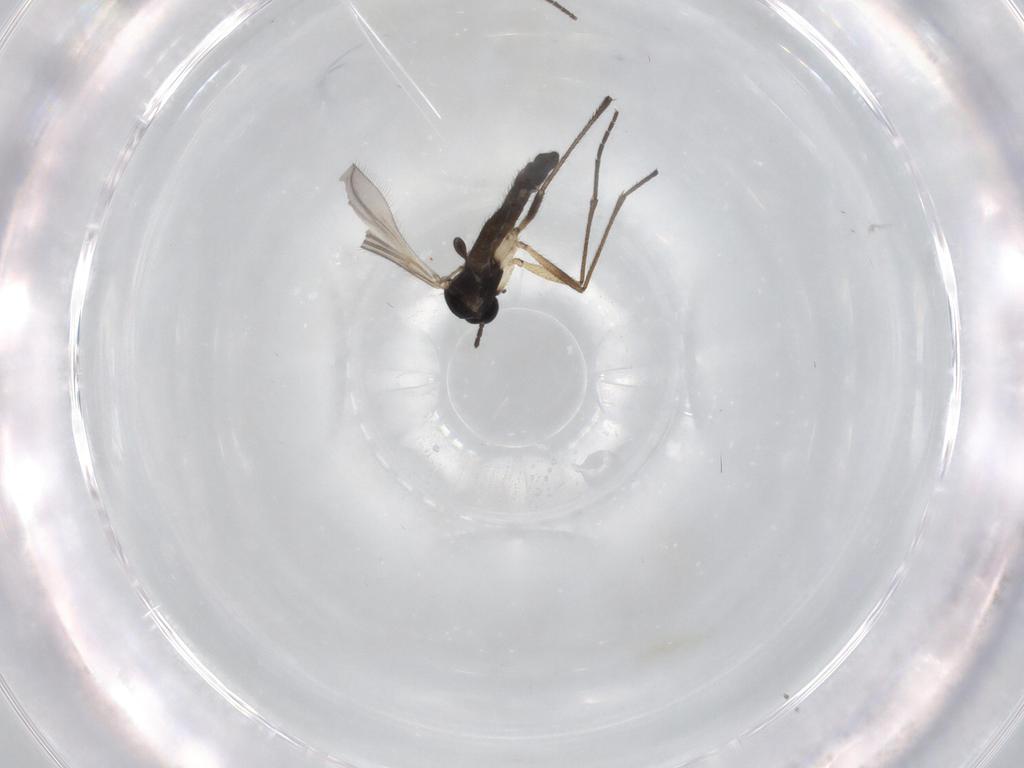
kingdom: Animalia
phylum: Arthropoda
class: Insecta
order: Diptera
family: Sciaridae
